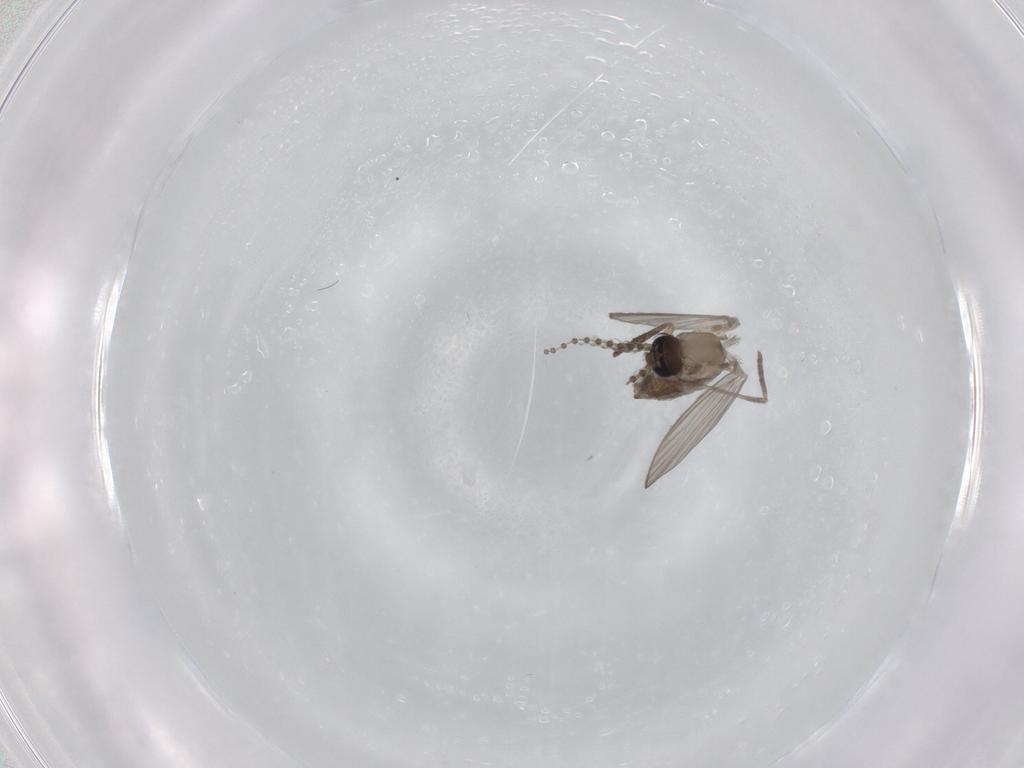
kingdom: Animalia
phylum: Arthropoda
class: Insecta
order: Diptera
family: Psychodidae
